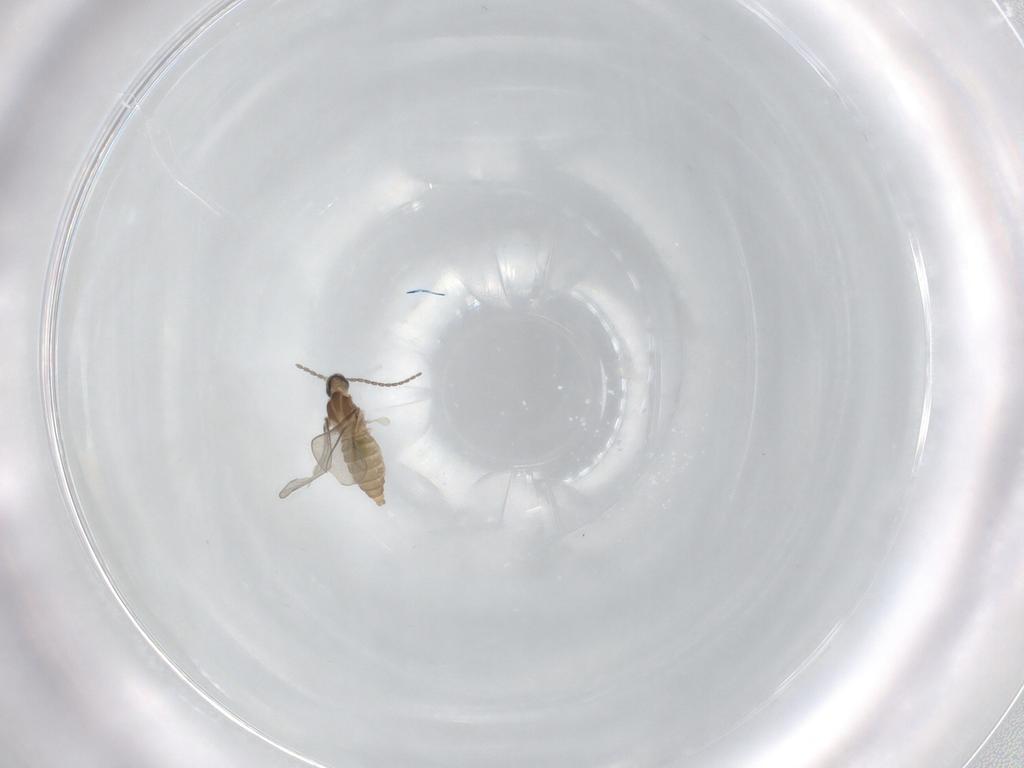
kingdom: Animalia
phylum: Arthropoda
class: Insecta
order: Diptera
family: Cecidomyiidae
